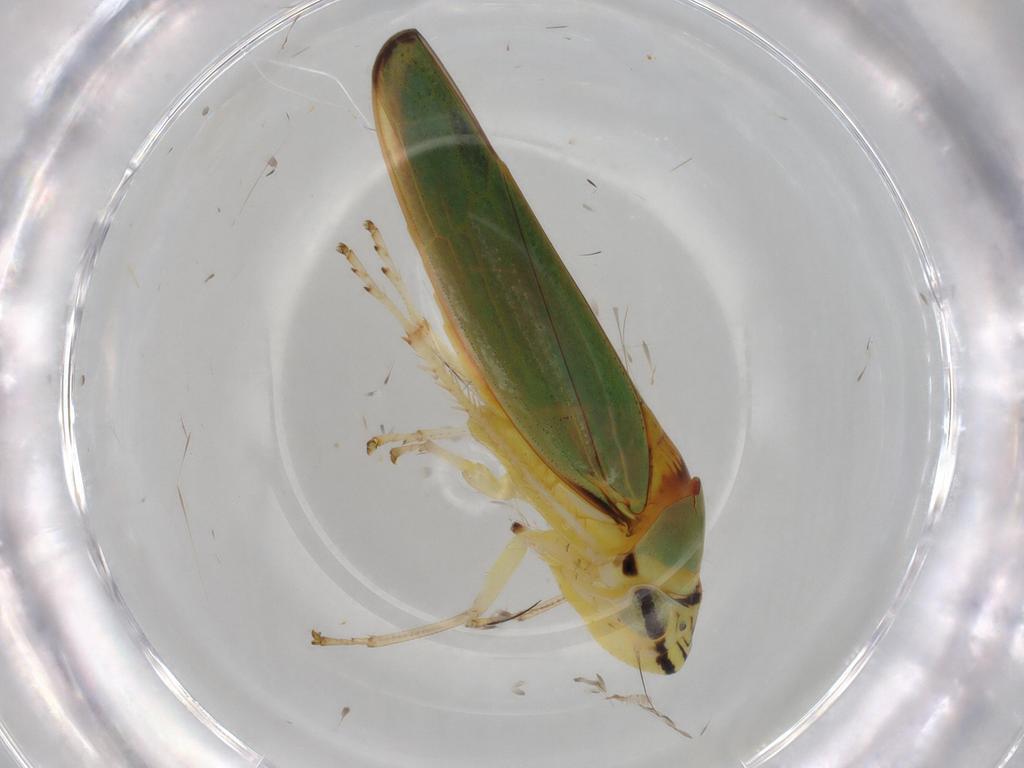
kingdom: Animalia
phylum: Arthropoda
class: Insecta
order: Hemiptera
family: Cicadellidae
